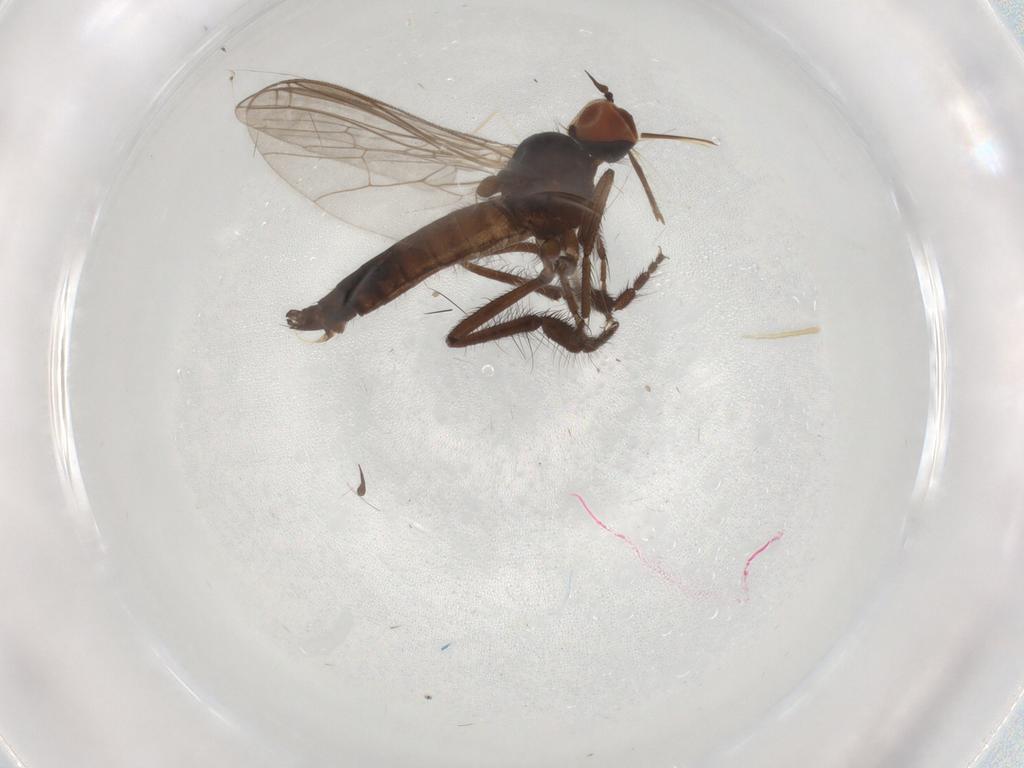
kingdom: Animalia
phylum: Arthropoda
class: Insecta
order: Diptera
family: Empididae
